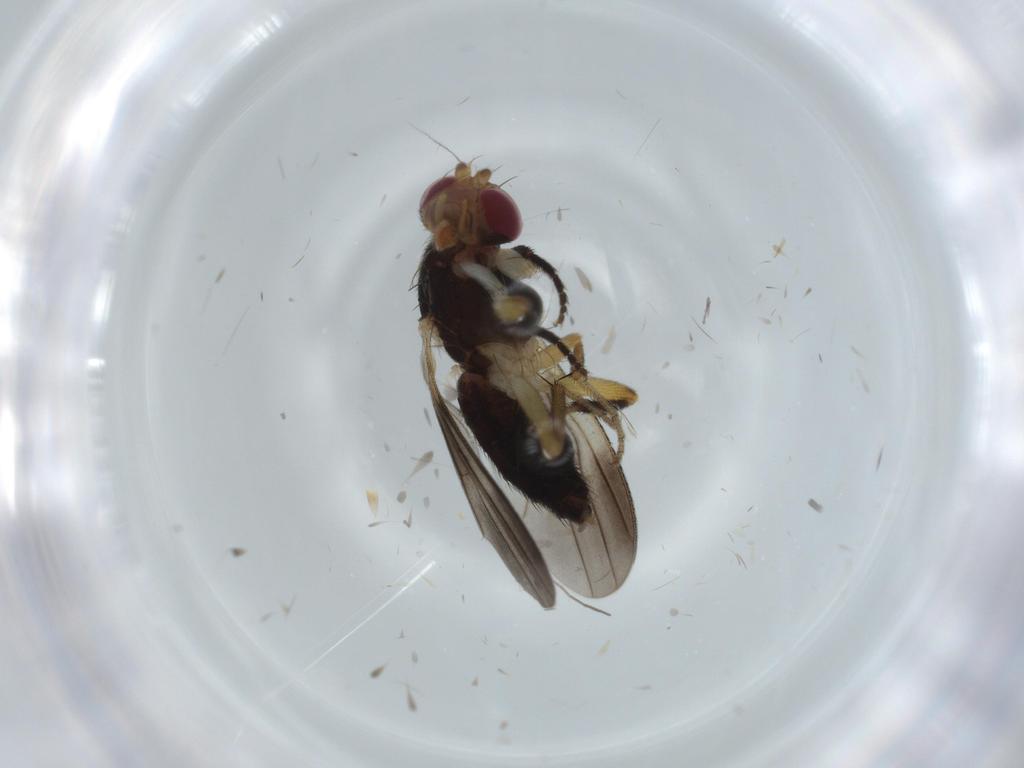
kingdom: Animalia
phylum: Arthropoda
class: Insecta
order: Diptera
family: Clusiidae
